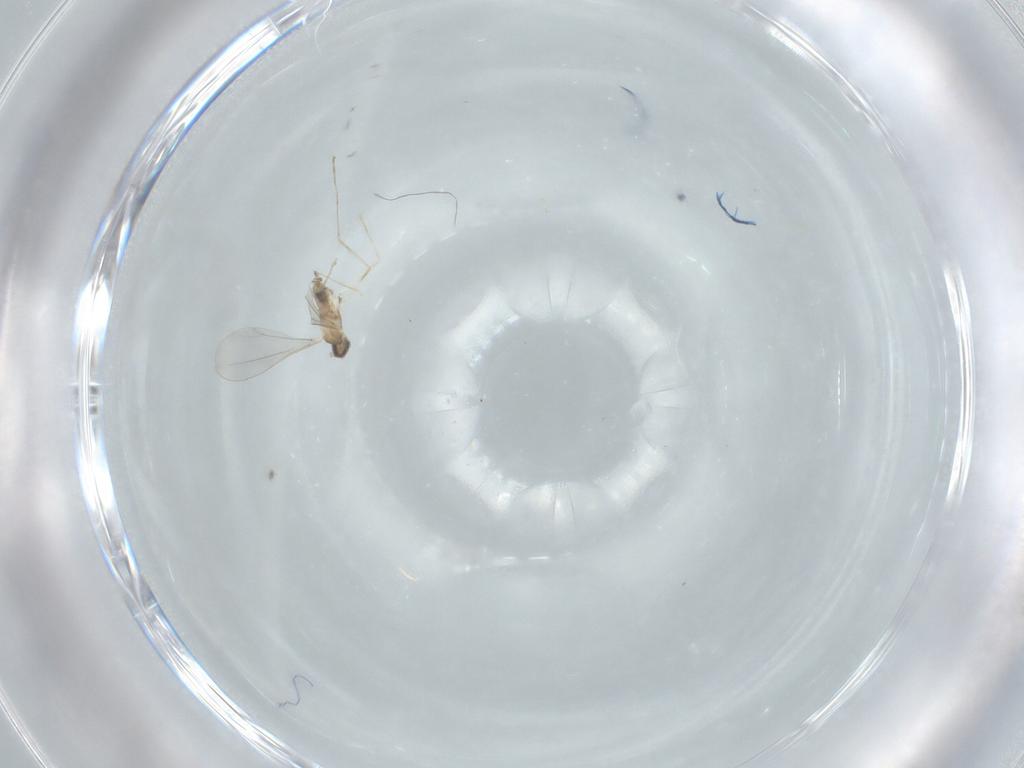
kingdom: Animalia
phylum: Arthropoda
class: Insecta
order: Diptera
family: Cecidomyiidae
